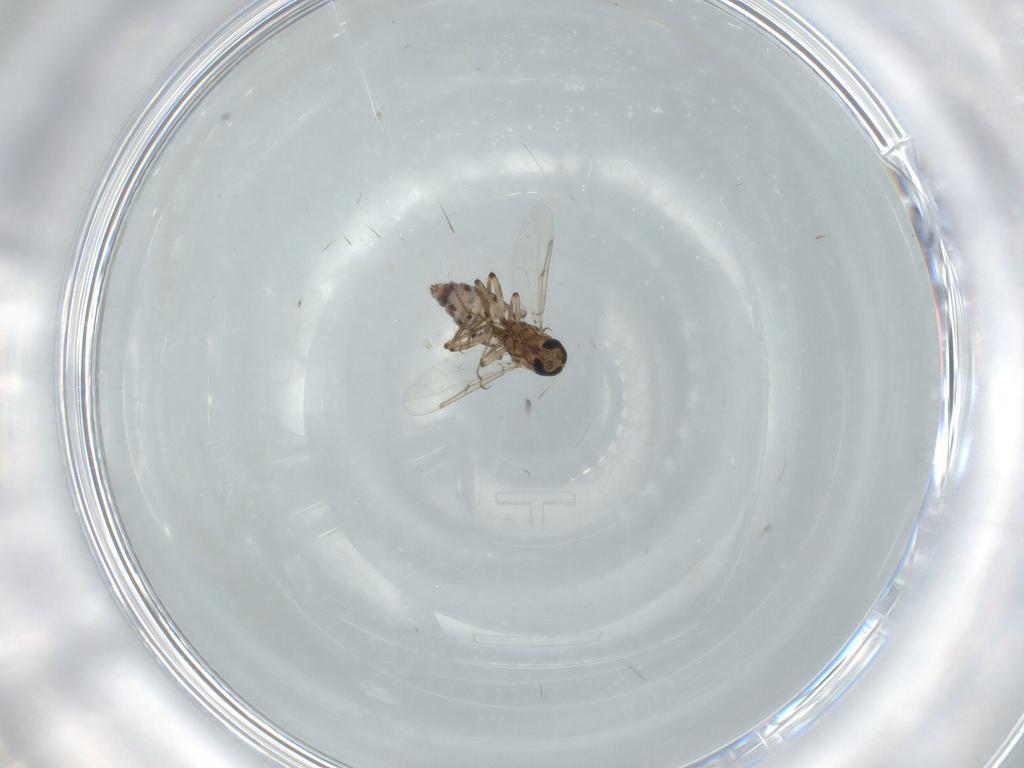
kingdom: Animalia
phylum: Arthropoda
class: Insecta
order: Diptera
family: Ceratopogonidae
